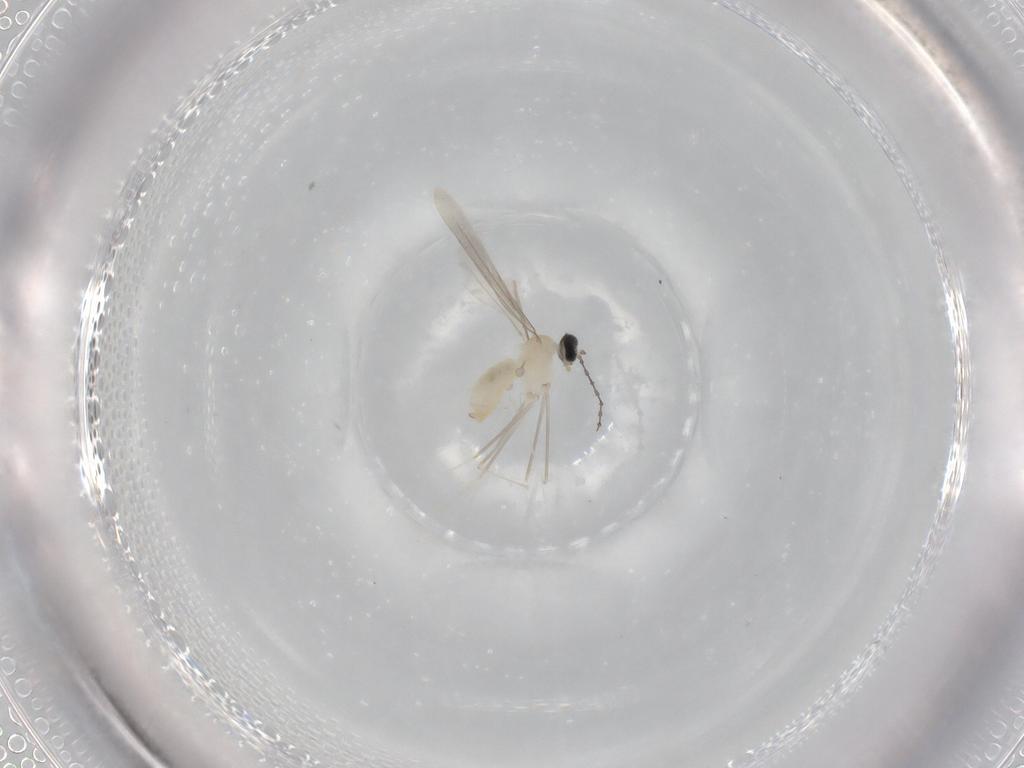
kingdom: Animalia
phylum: Arthropoda
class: Insecta
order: Diptera
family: Cecidomyiidae
